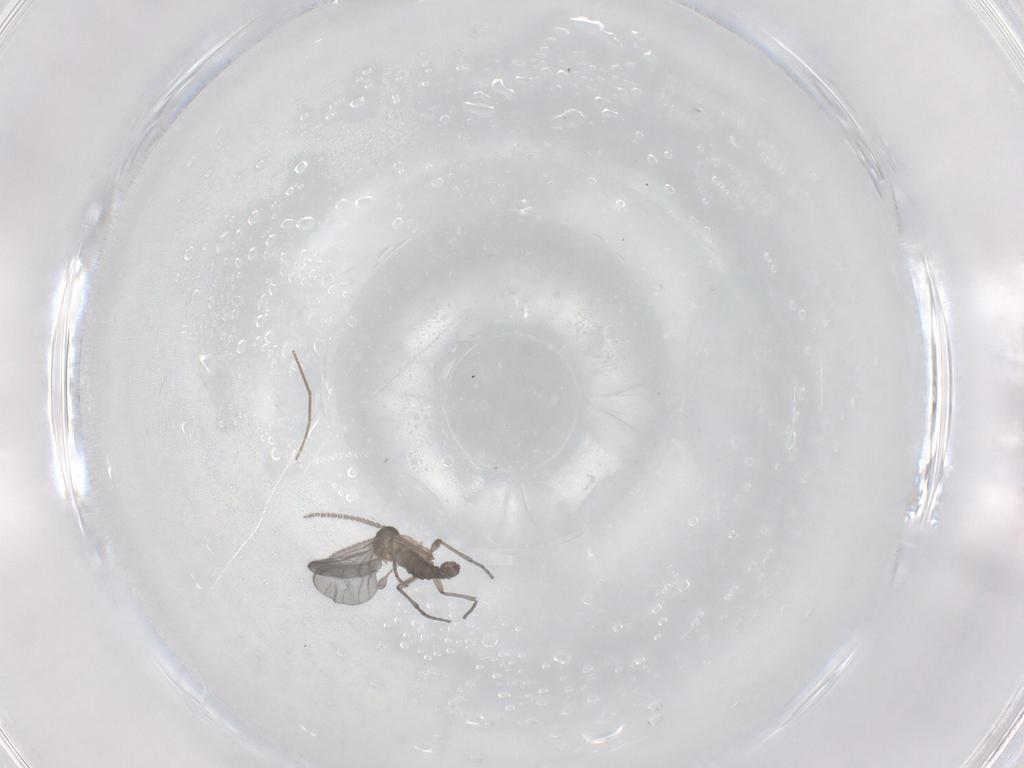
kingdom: Animalia
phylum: Arthropoda
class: Insecta
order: Diptera
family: Sciaridae
